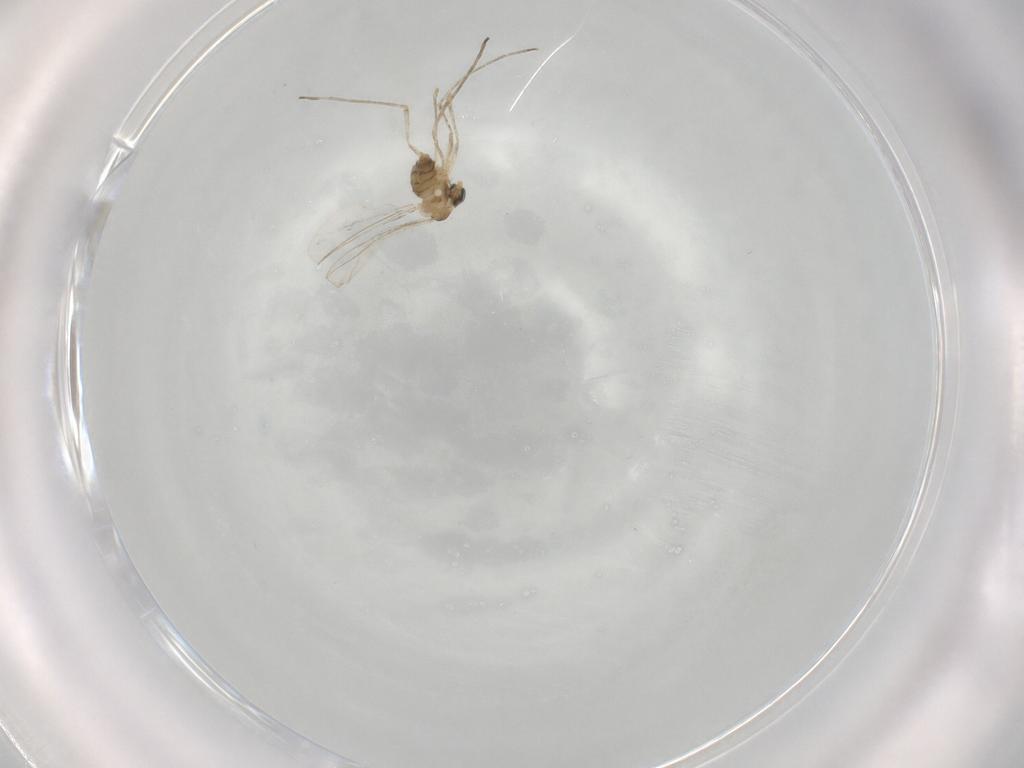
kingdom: Animalia
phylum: Arthropoda
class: Insecta
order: Diptera
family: Cecidomyiidae
